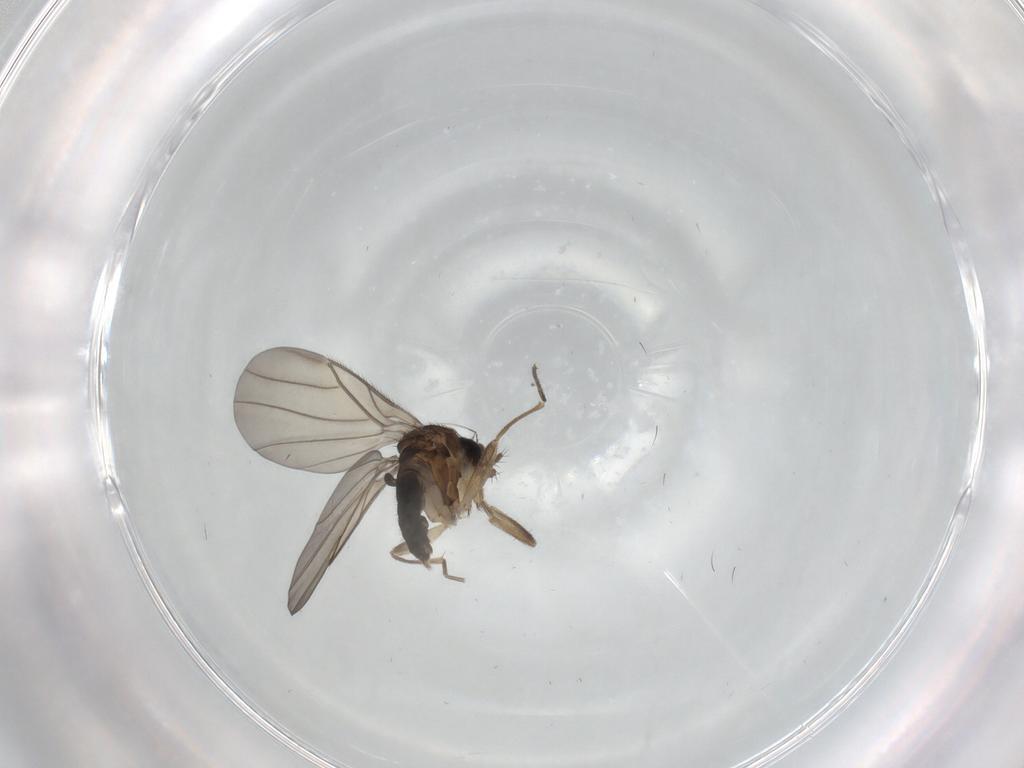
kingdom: Animalia
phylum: Arthropoda
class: Insecta
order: Diptera
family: Phoridae
